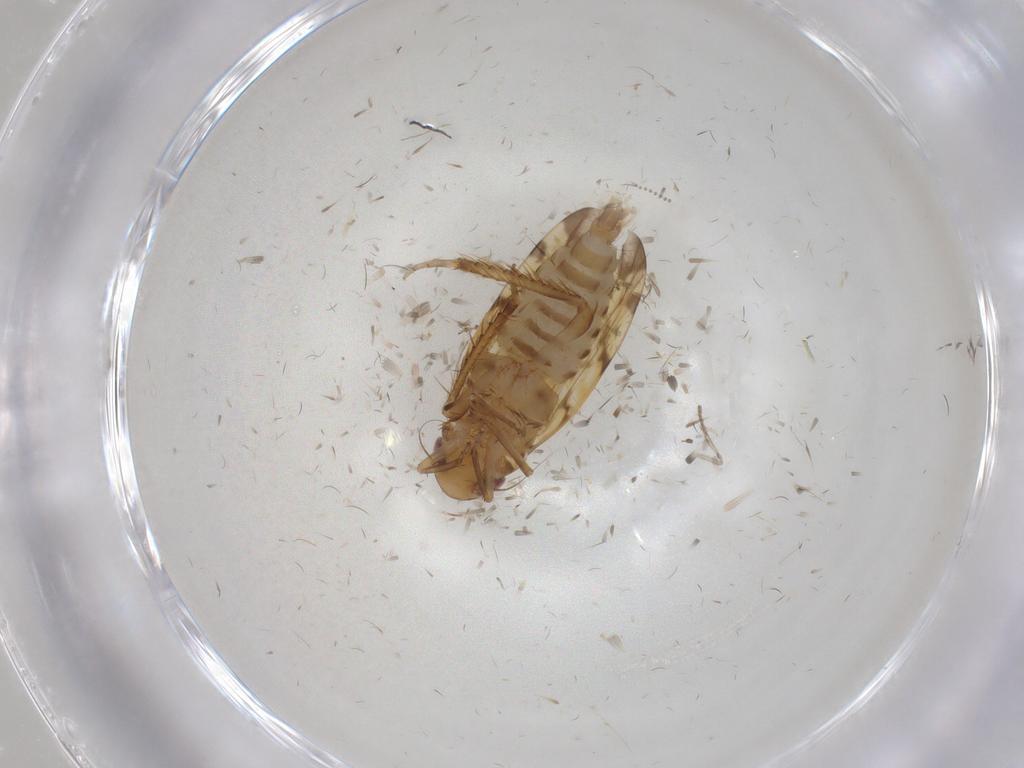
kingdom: Animalia
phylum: Arthropoda
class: Insecta
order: Hemiptera
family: Cicadellidae
